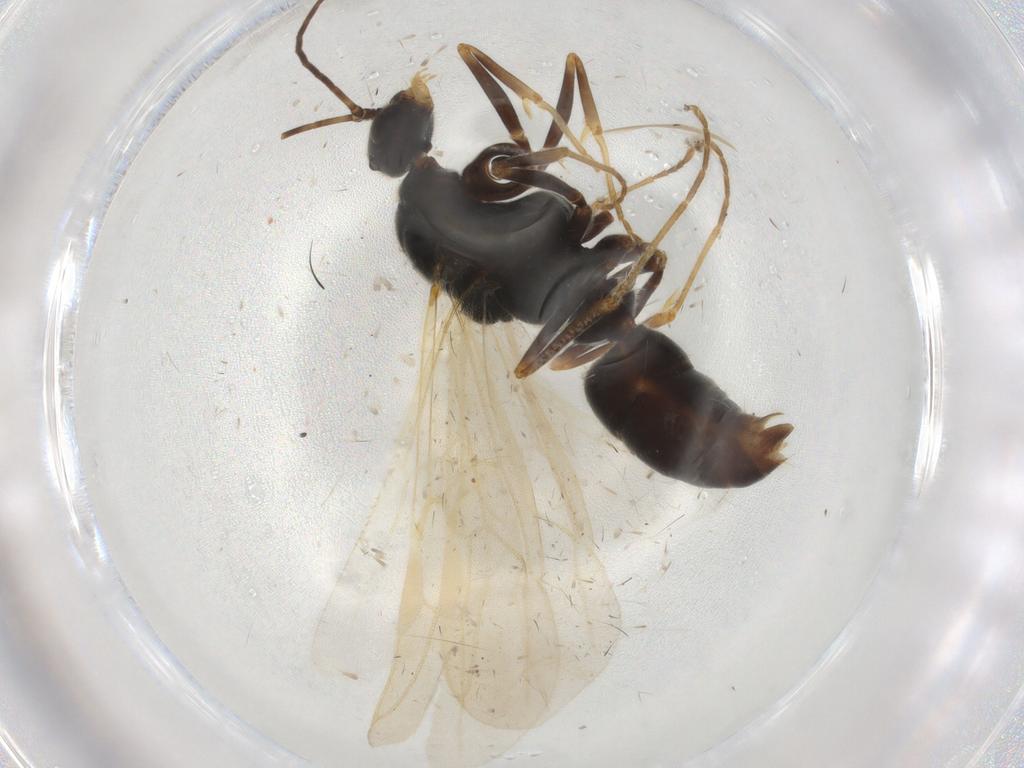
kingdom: Animalia
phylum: Arthropoda
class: Insecta
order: Hymenoptera
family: Formicidae
